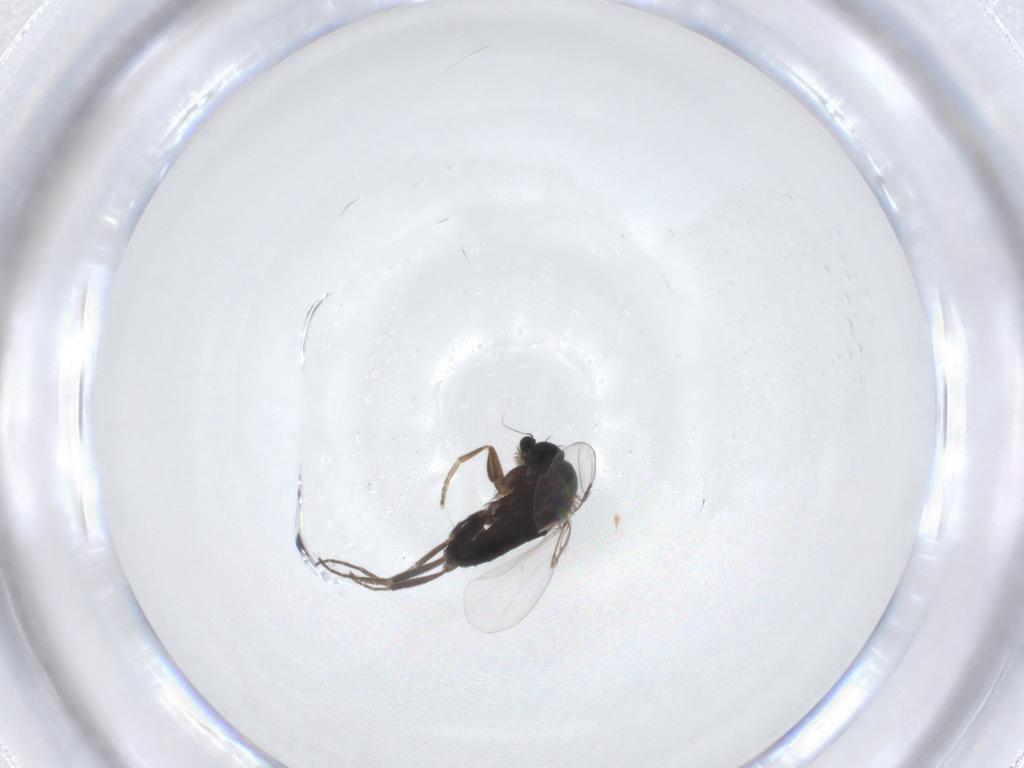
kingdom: Animalia
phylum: Arthropoda
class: Insecta
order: Diptera
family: Phoridae
